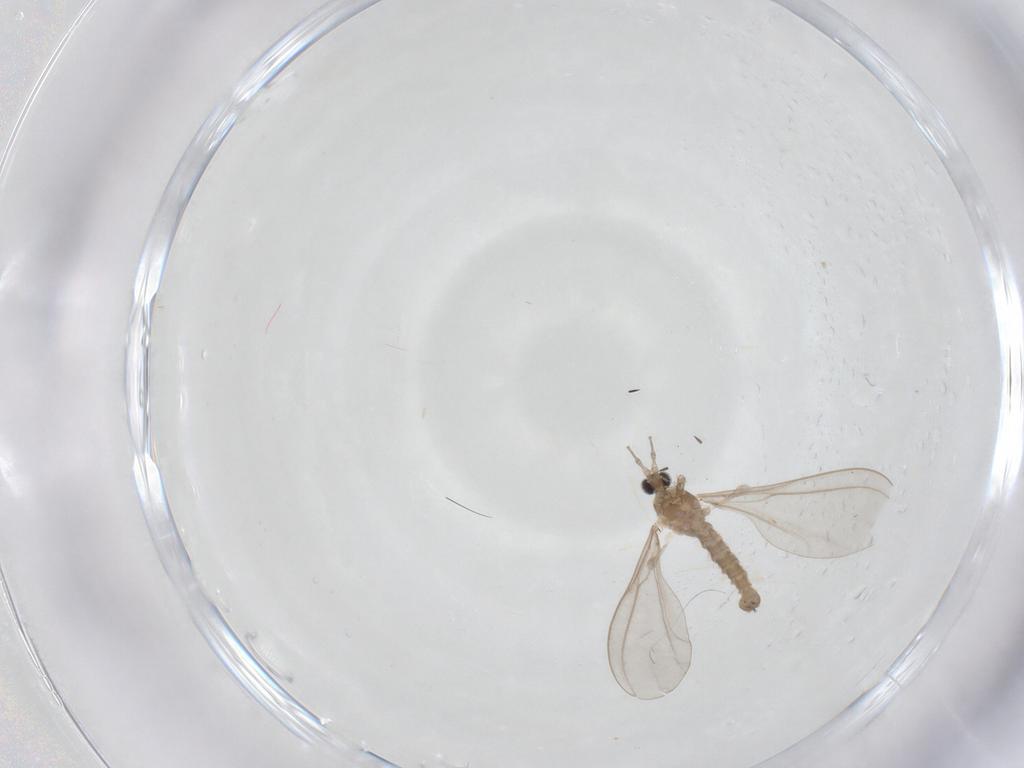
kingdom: Animalia
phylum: Arthropoda
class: Insecta
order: Diptera
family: Cecidomyiidae
